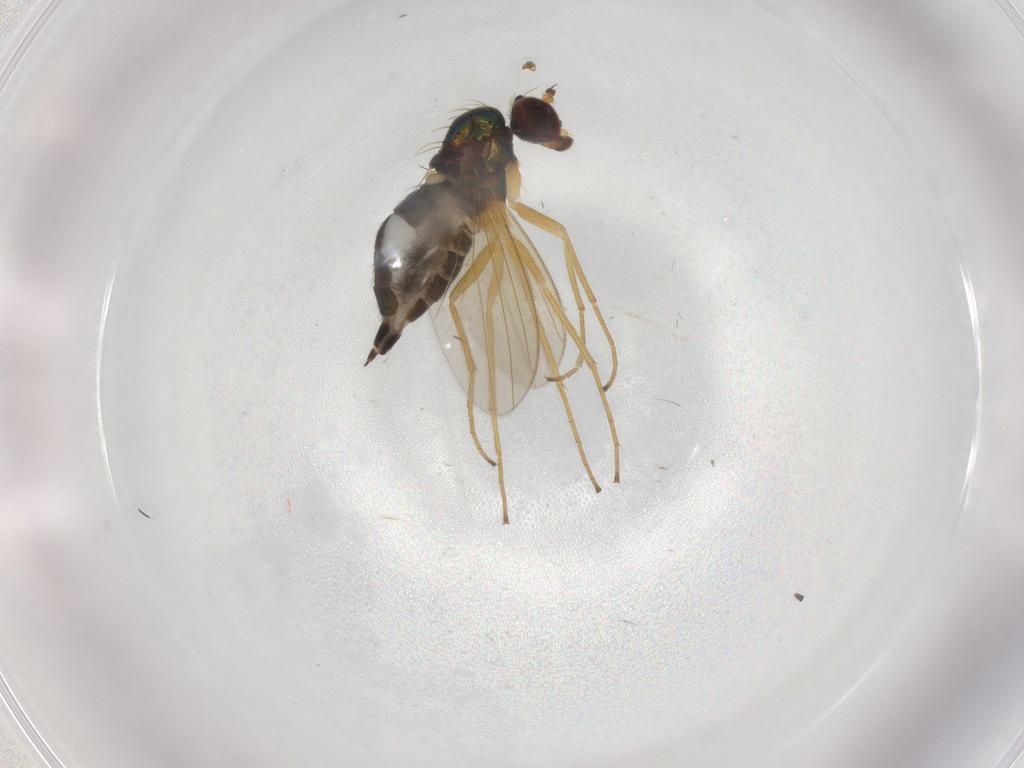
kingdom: Animalia
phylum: Arthropoda
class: Insecta
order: Diptera
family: Dolichopodidae
